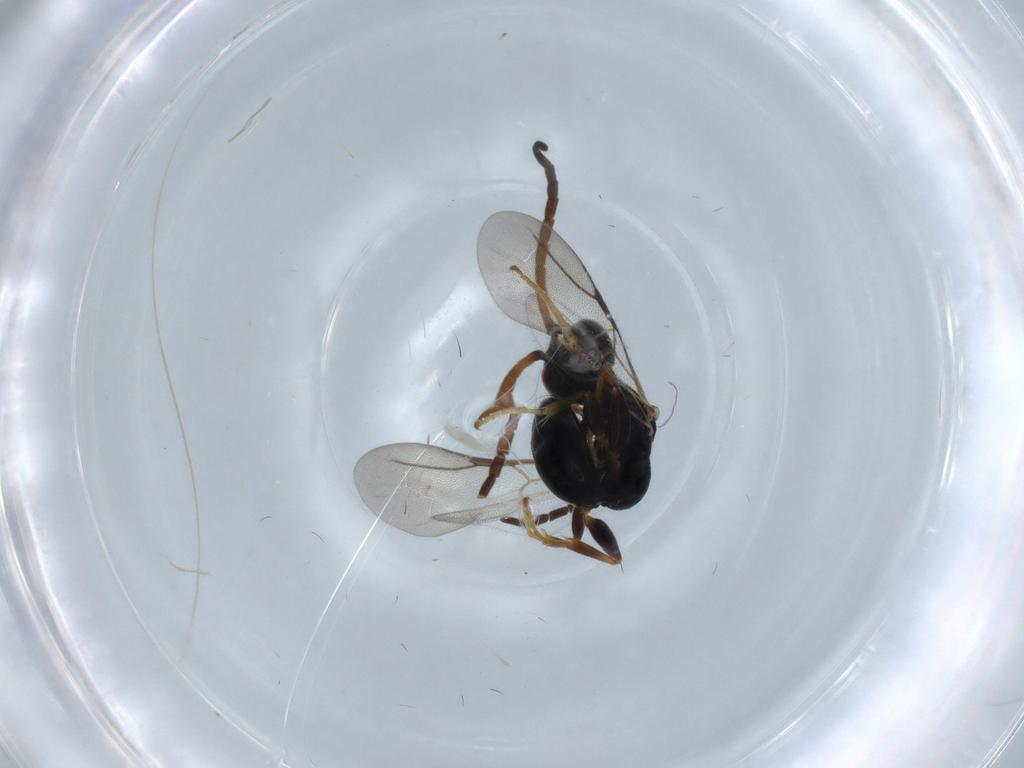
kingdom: Animalia
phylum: Arthropoda
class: Insecta
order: Hymenoptera
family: Bethylidae
